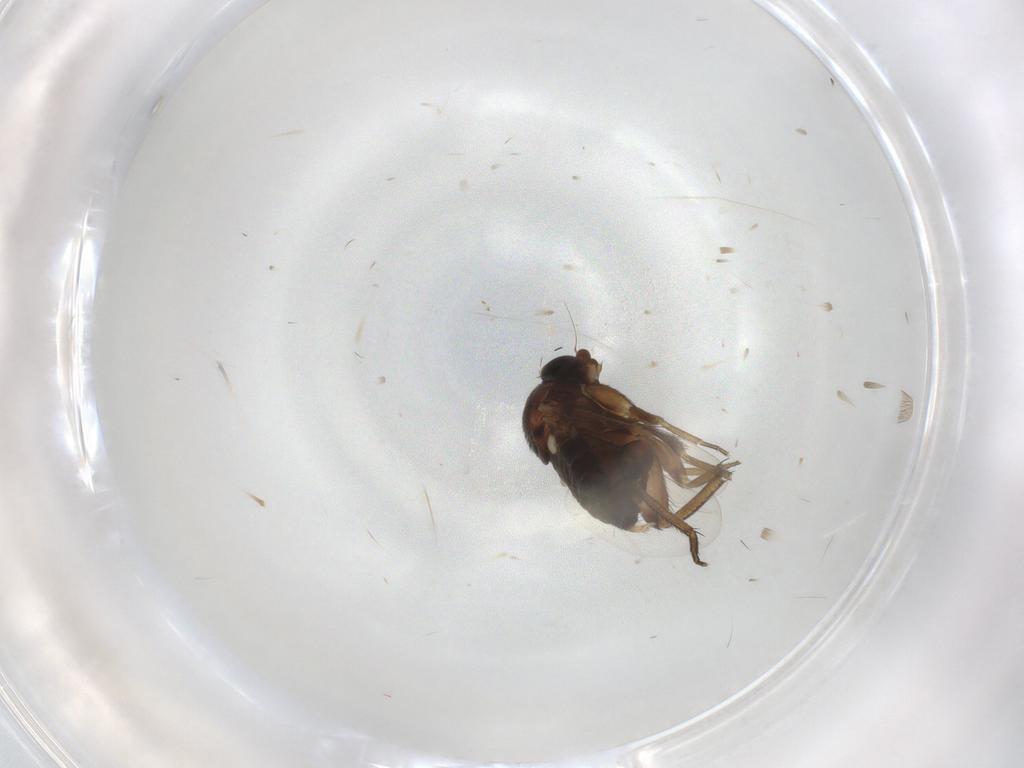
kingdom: Animalia
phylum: Arthropoda
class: Insecta
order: Diptera
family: Phoridae
